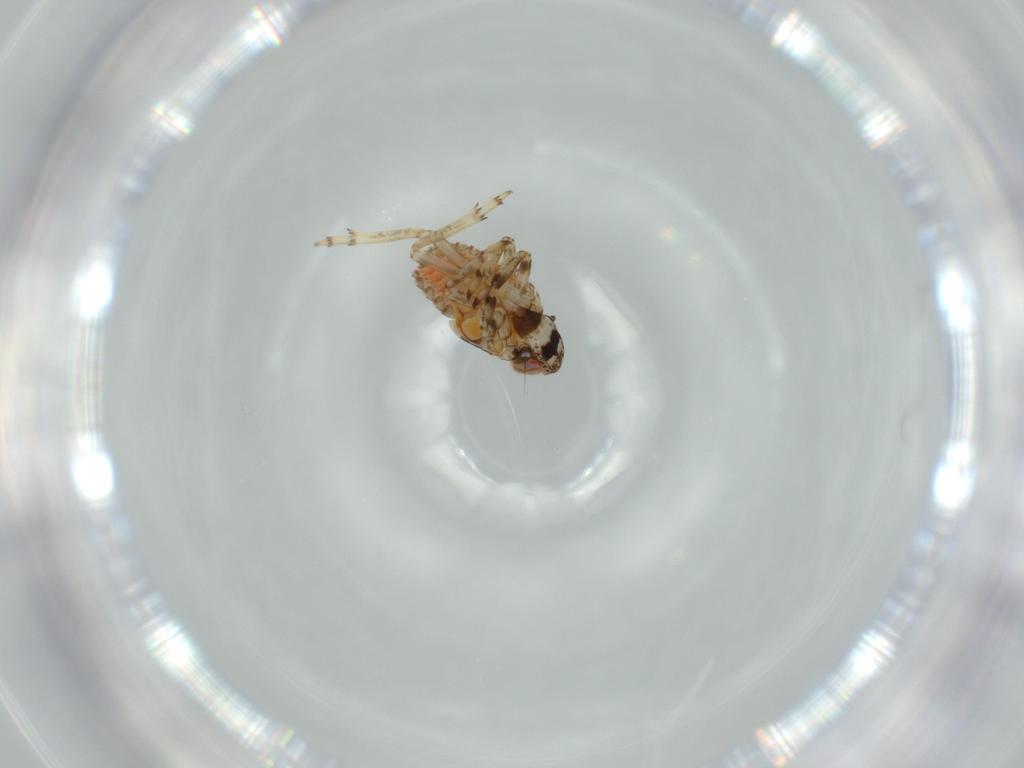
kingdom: Animalia
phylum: Arthropoda
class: Insecta
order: Hemiptera
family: Issidae
